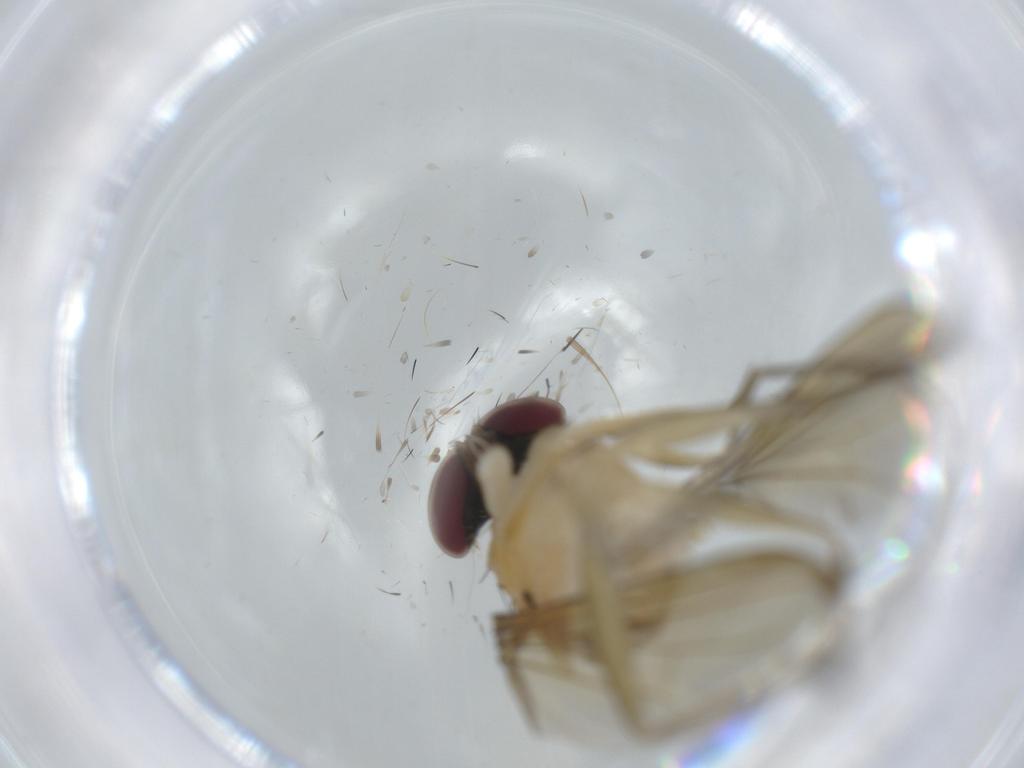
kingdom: Animalia
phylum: Arthropoda
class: Insecta
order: Diptera
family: Dolichopodidae
